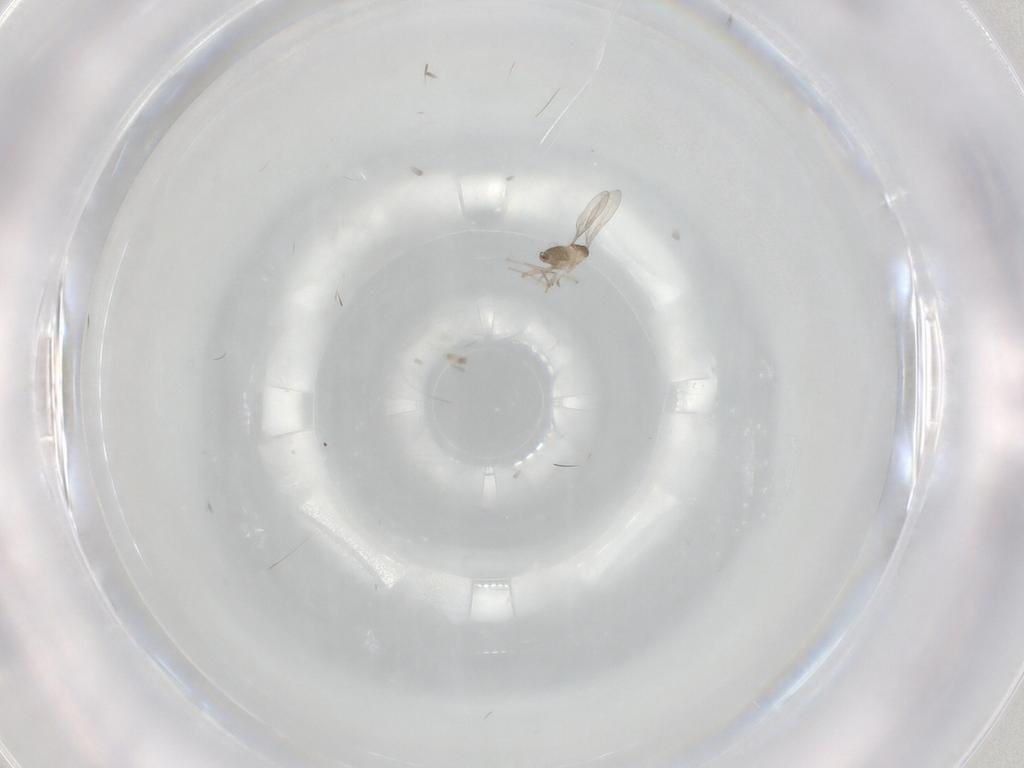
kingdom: Animalia
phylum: Arthropoda
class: Insecta
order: Diptera
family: Cecidomyiidae
